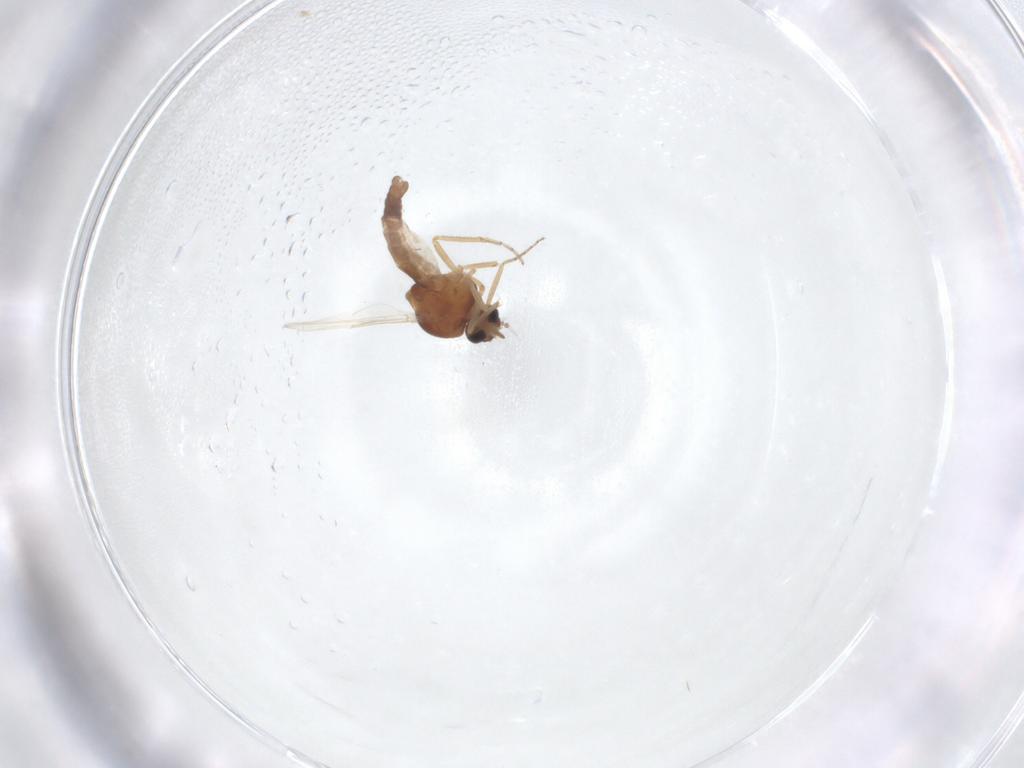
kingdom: Animalia
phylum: Arthropoda
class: Insecta
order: Diptera
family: Ceratopogonidae
